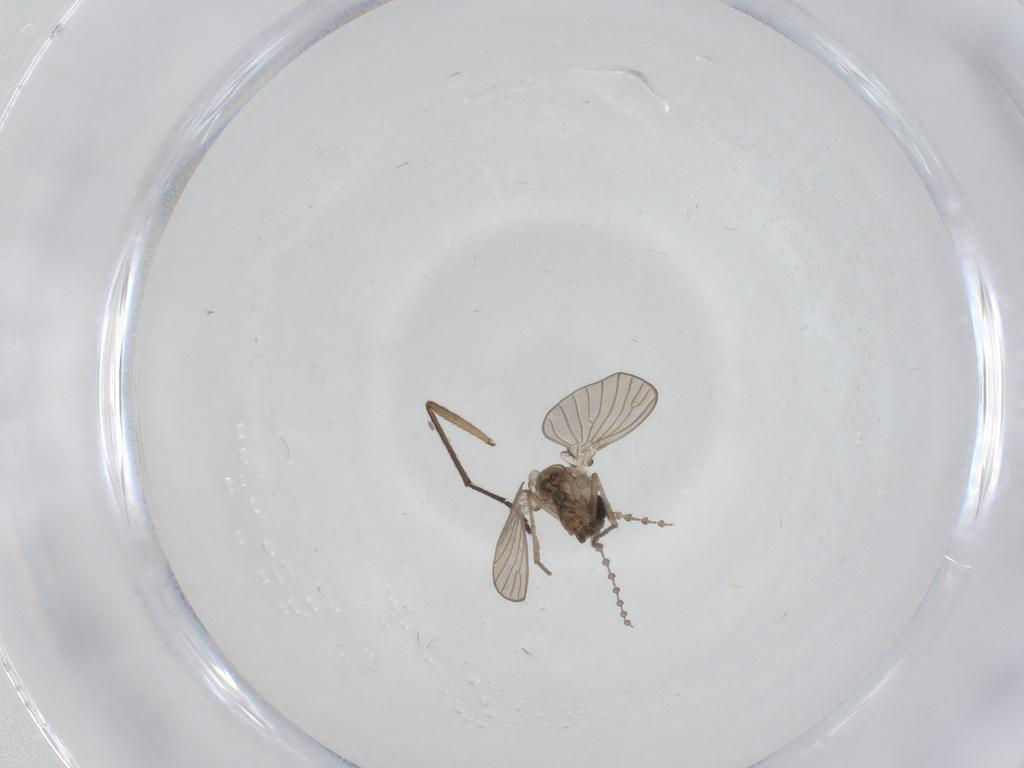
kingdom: Animalia
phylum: Arthropoda
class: Insecta
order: Diptera
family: Psychodidae
